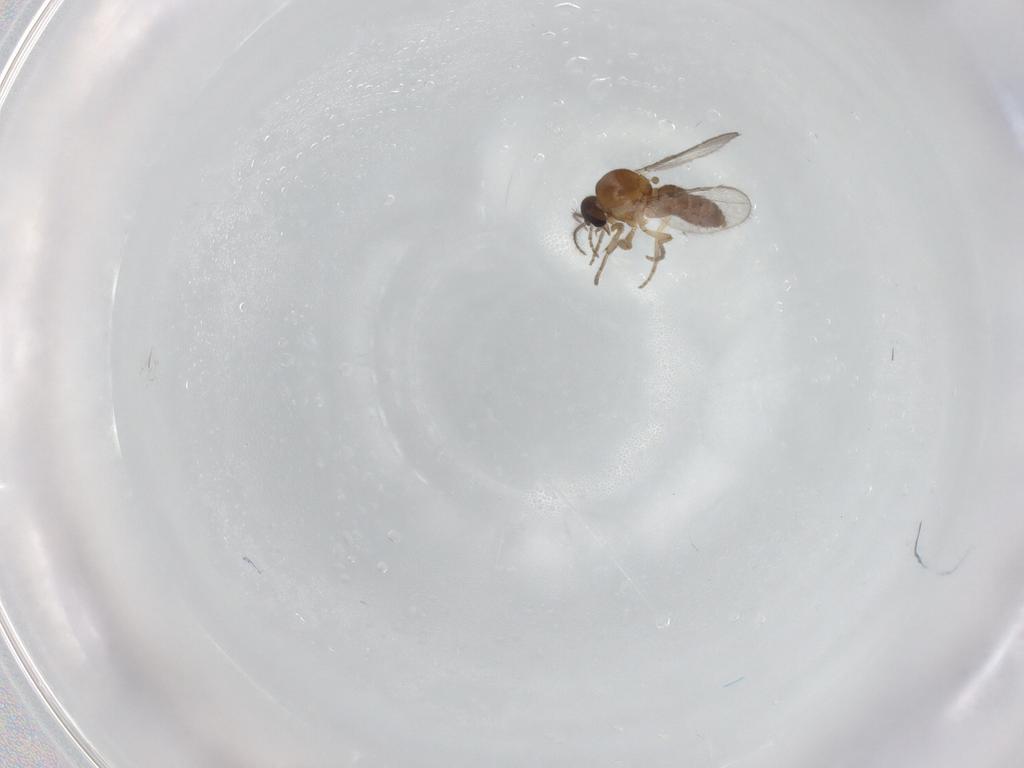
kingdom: Animalia
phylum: Arthropoda
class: Insecta
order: Diptera
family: Ceratopogonidae
